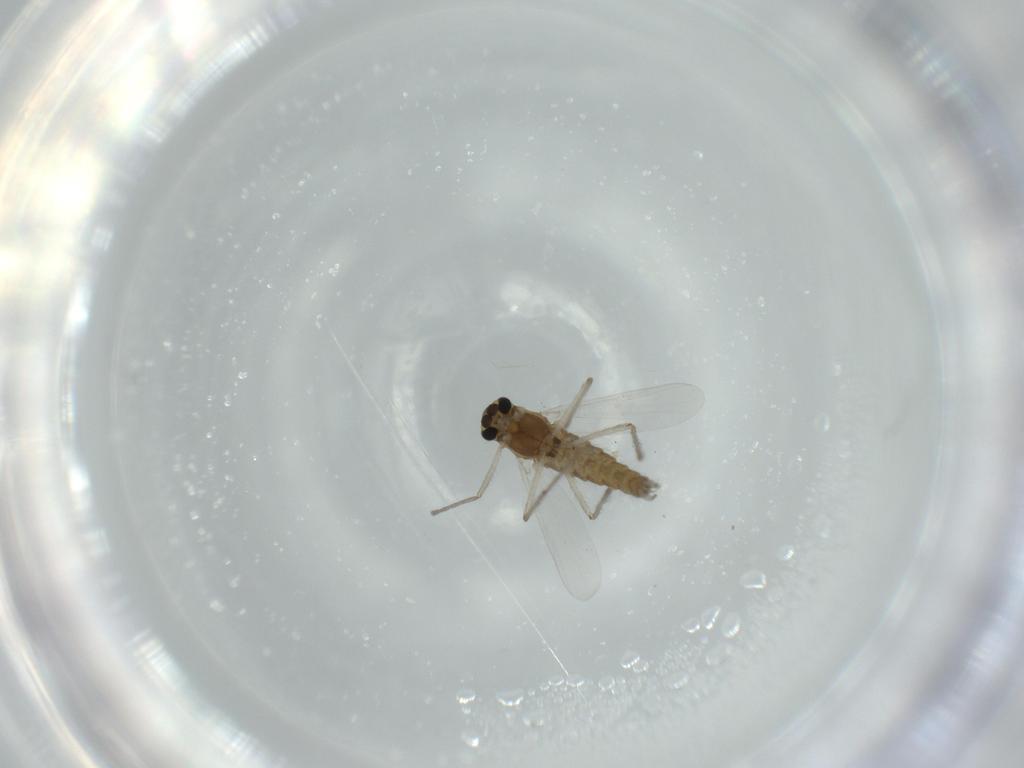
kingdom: Animalia
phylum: Arthropoda
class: Insecta
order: Diptera
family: Chironomidae
